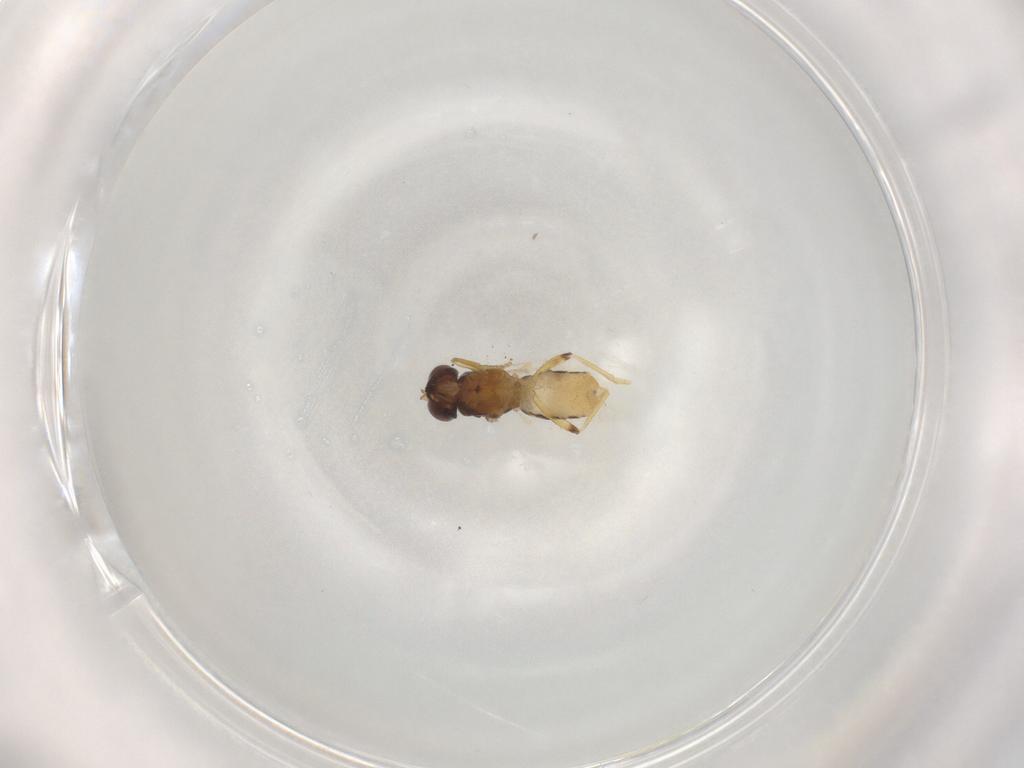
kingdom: Animalia
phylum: Arthropoda
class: Insecta
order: Diptera
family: Periscelididae
